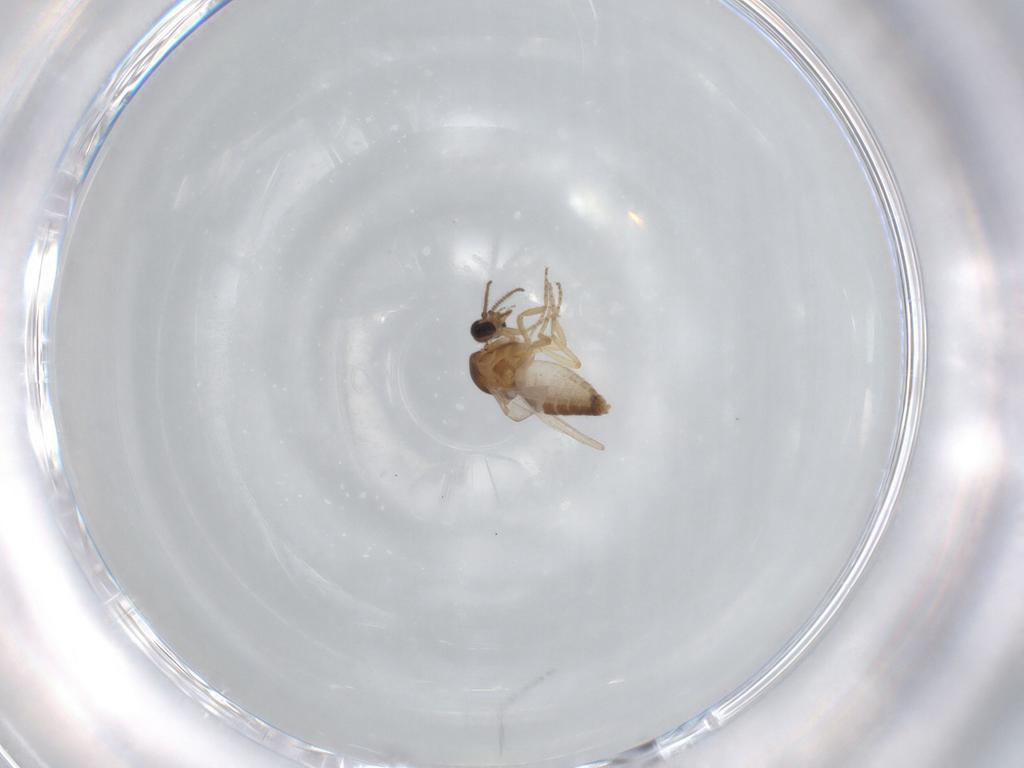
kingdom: Animalia
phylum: Arthropoda
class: Insecta
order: Diptera
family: Ceratopogonidae
